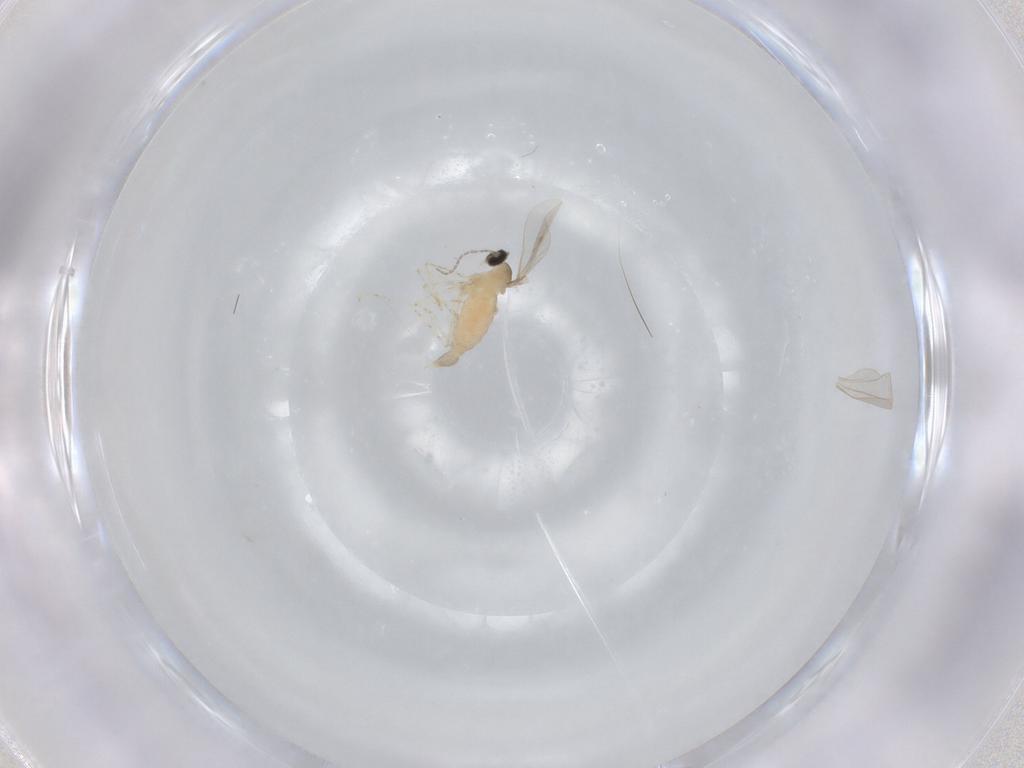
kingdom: Animalia
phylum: Arthropoda
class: Insecta
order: Diptera
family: Cecidomyiidae
